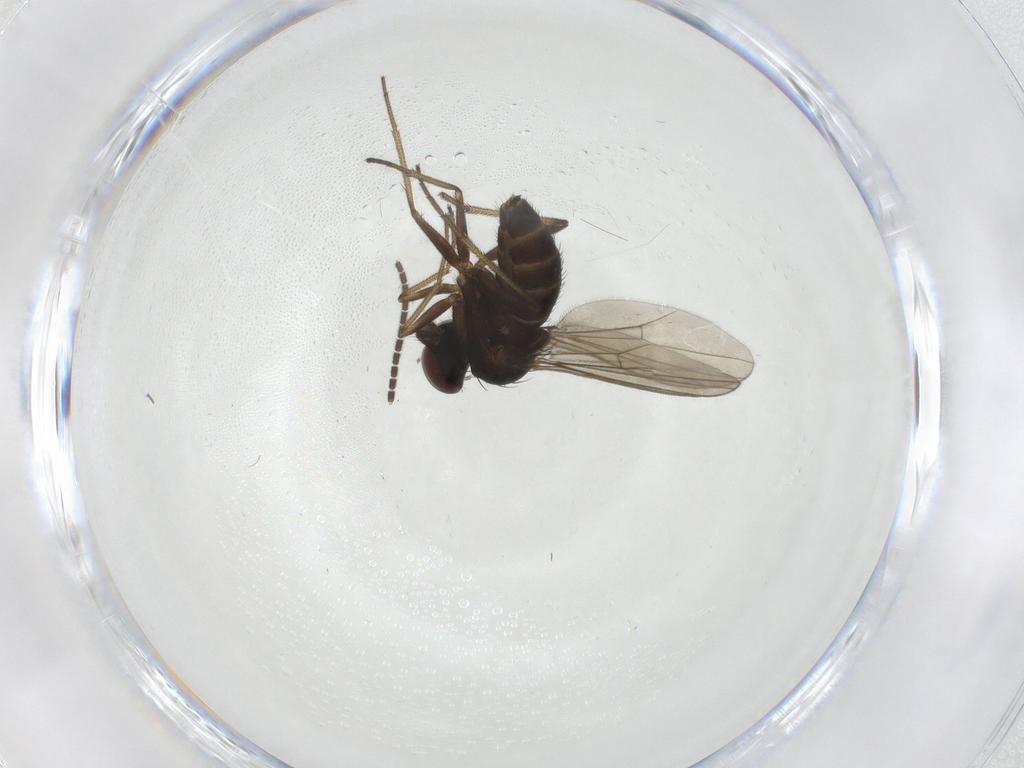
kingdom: Animalia
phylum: Arthropoda
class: Insecta
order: Diptera
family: Dolichopodidae
